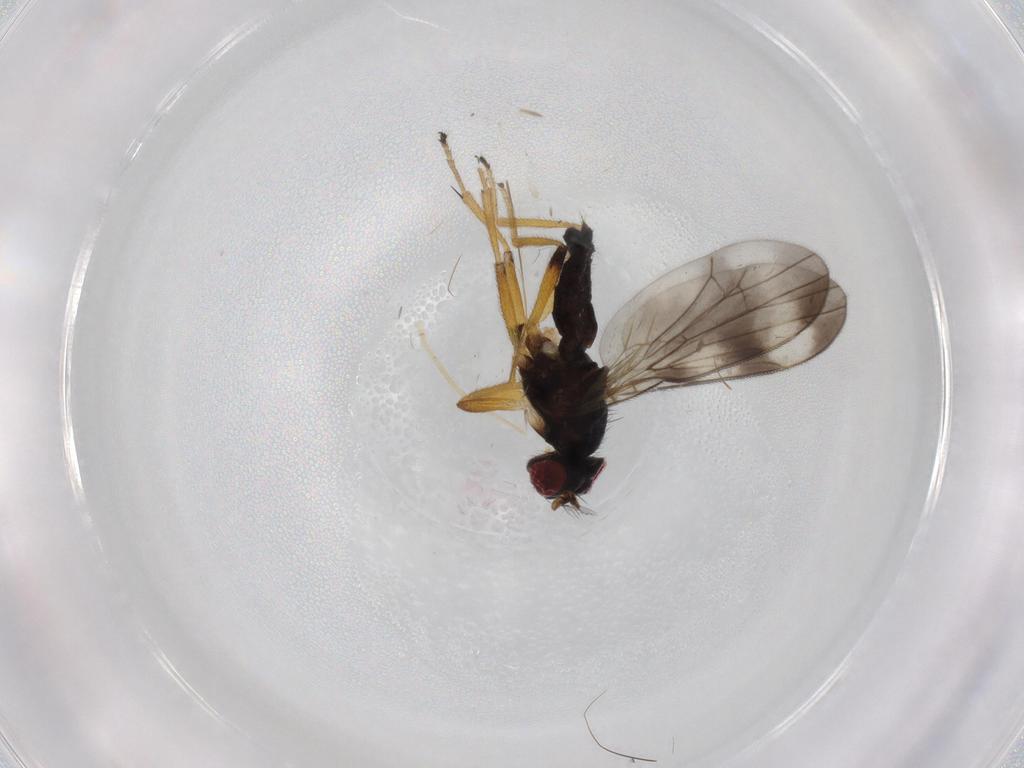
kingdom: Animalia
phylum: Arthropoda
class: Insecta
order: Diptera
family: Periscelididae
